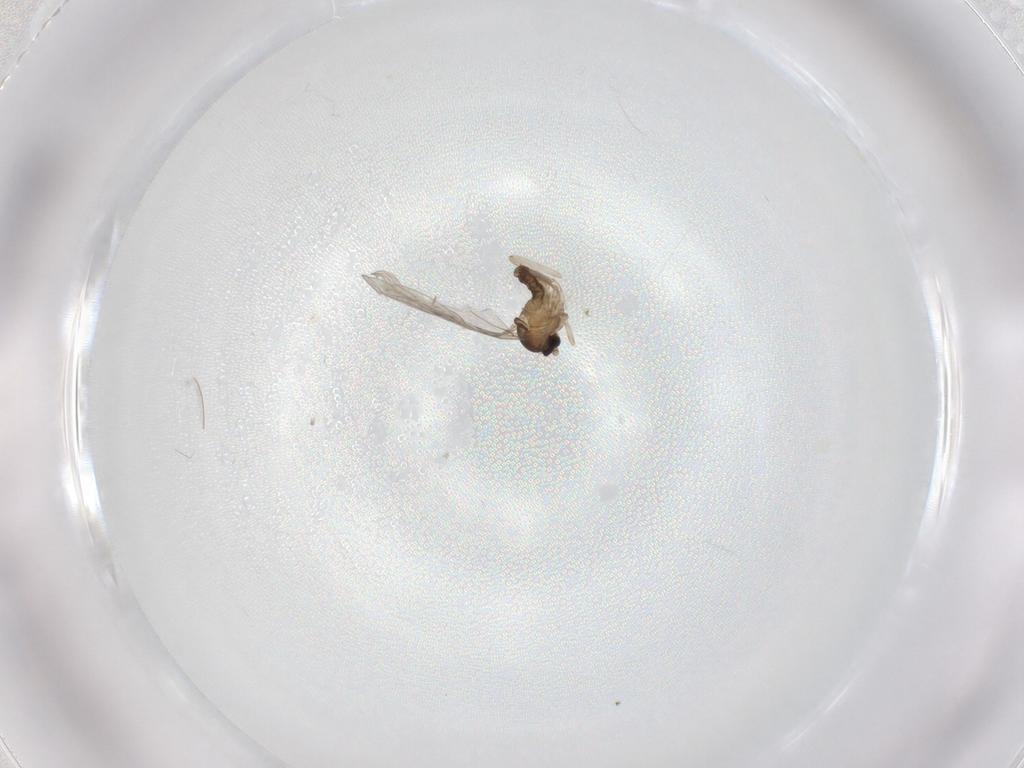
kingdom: Animalia
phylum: Arthropoda
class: Insecta
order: Diptera
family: Cecidomyiidae
